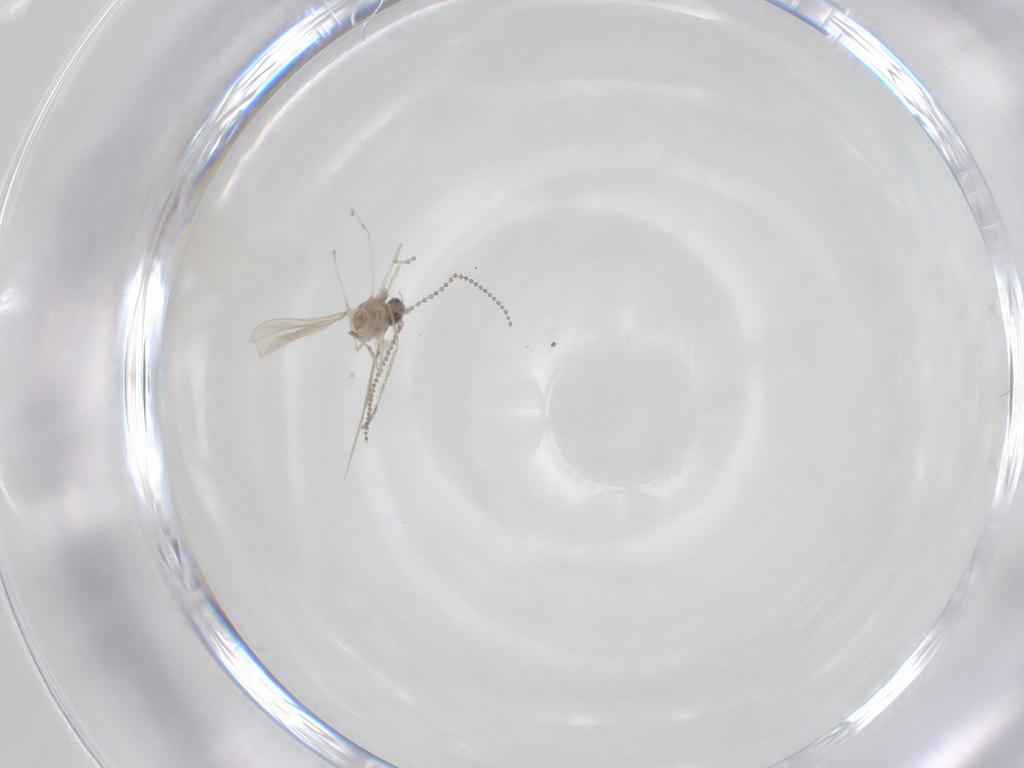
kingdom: Animalia
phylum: Arthropoda
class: Insecta
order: Diptera
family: Cecidomyiidae
